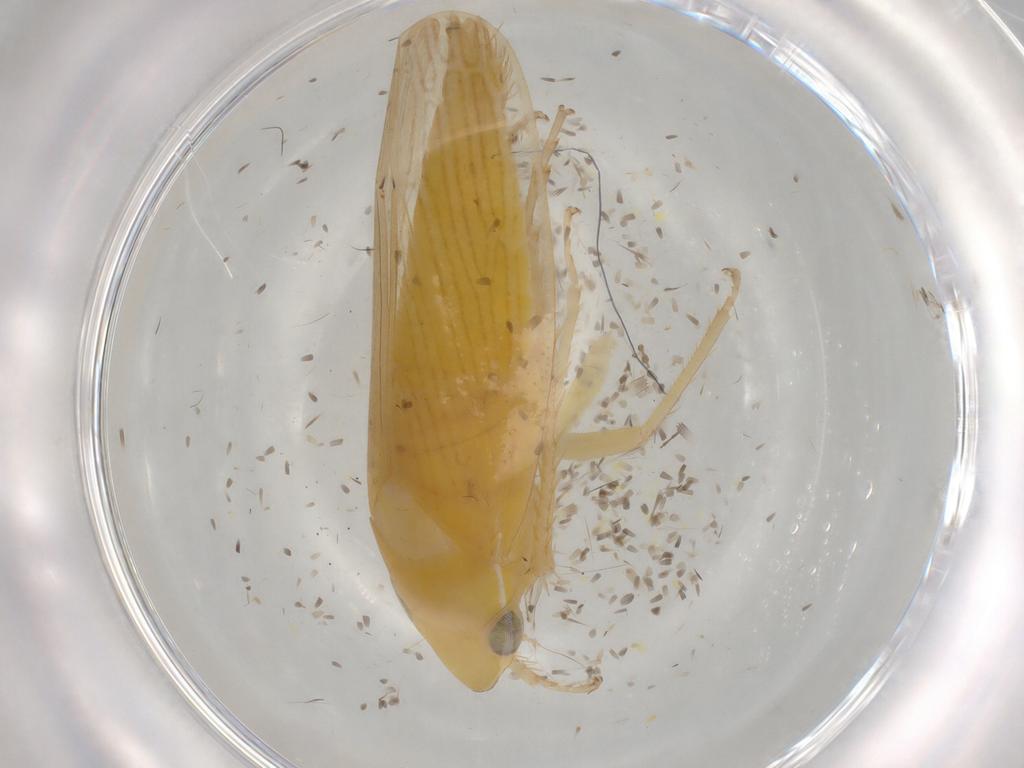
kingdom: Animalia
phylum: Arthropoda
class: Insecta
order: Hemiptera
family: Cicadellidae
